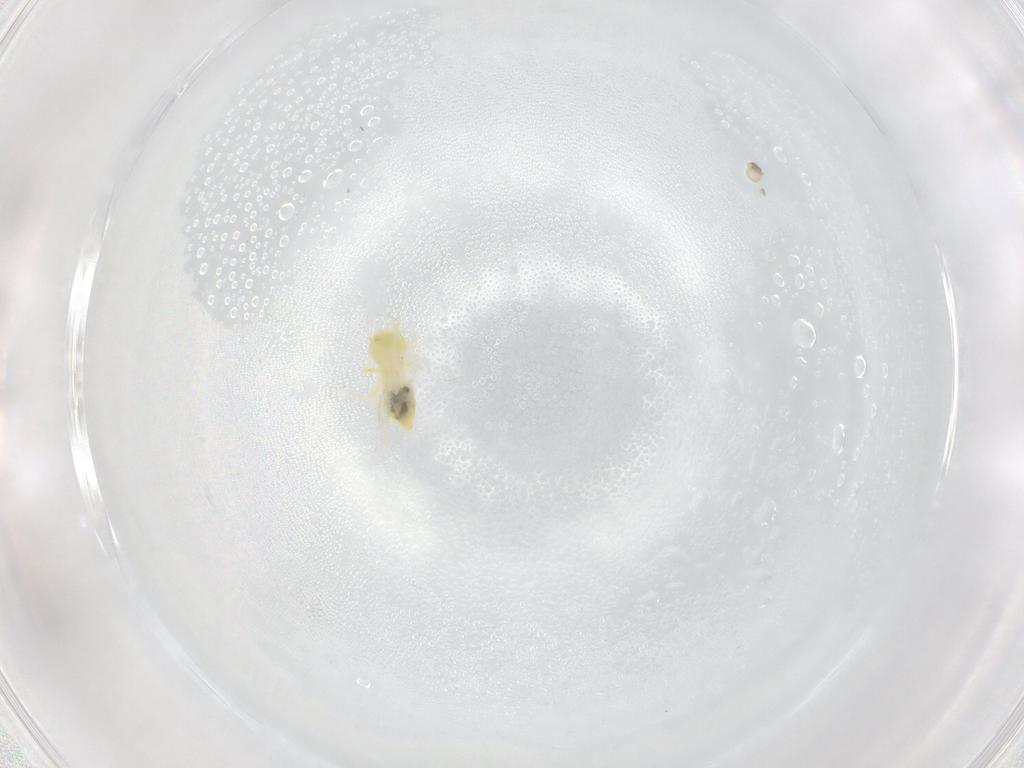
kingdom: Animalia
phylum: Arthropoda
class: Insecta
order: Hemiptera
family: Aleyrodidae
